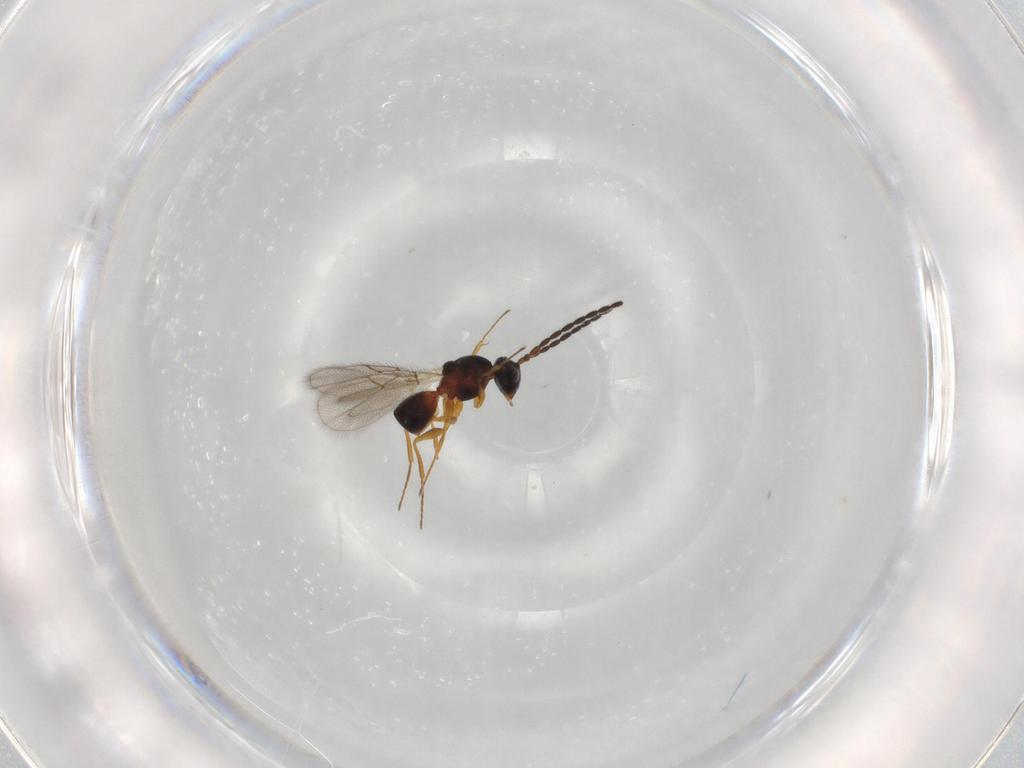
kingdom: Animalia
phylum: Arthropoda
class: Insecta
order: Hymenoptera
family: Figitidae
